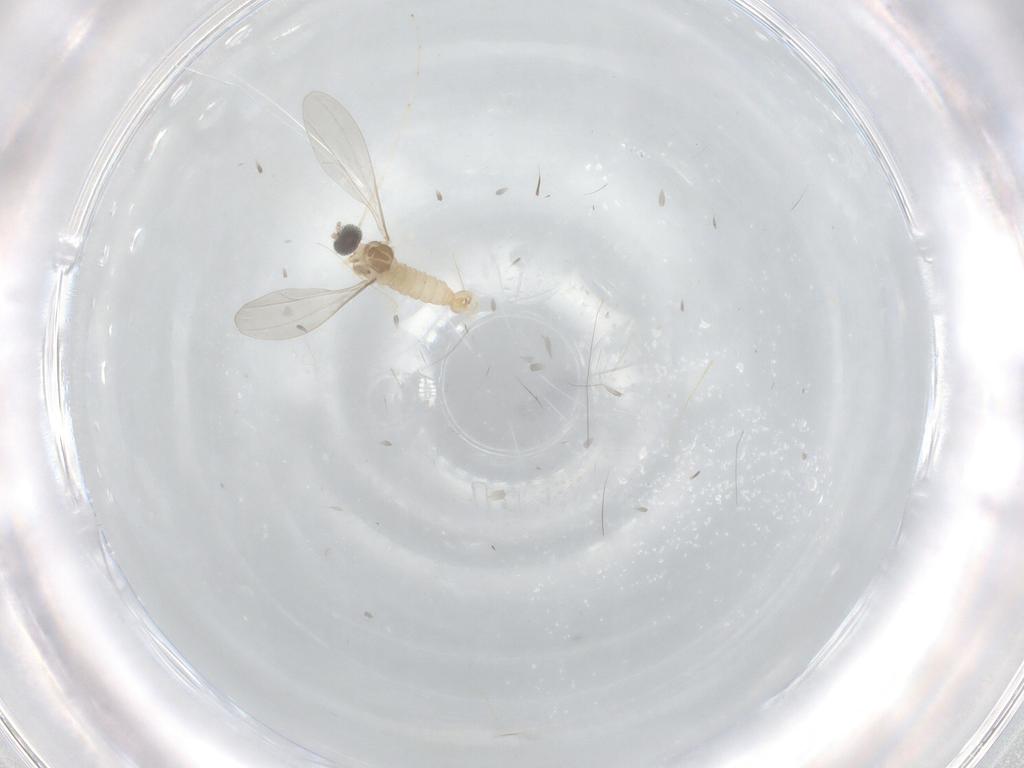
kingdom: Animalia
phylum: Arthropoda
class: Insecta
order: Diptera
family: Cecidomyiidae
